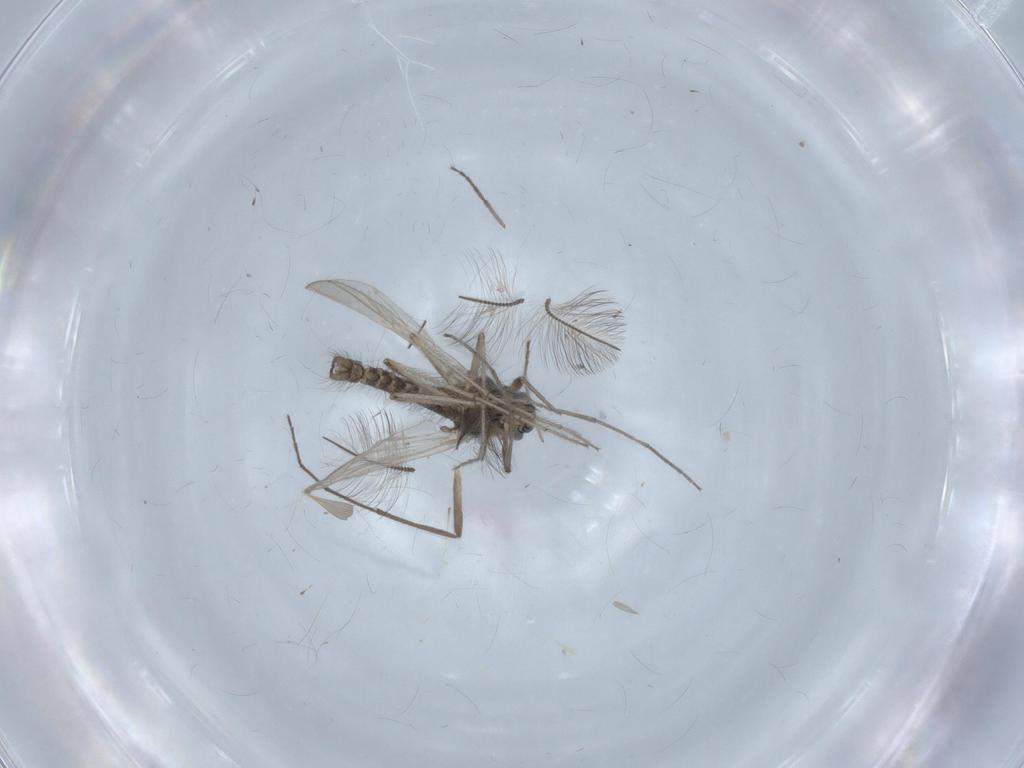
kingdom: Animalia
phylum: Arthropoda
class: Insecta
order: Diptera
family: Chironomidae
